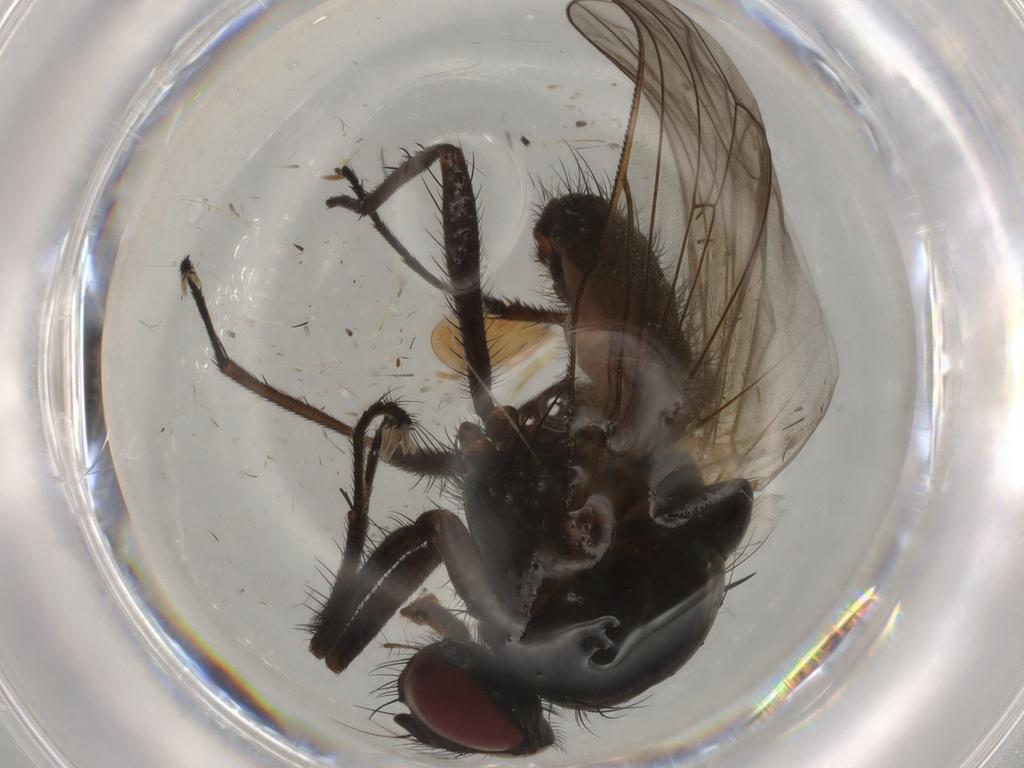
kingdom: Animalia
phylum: Arthropoda
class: Insecta
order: Diptera
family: Anthomyiidae
